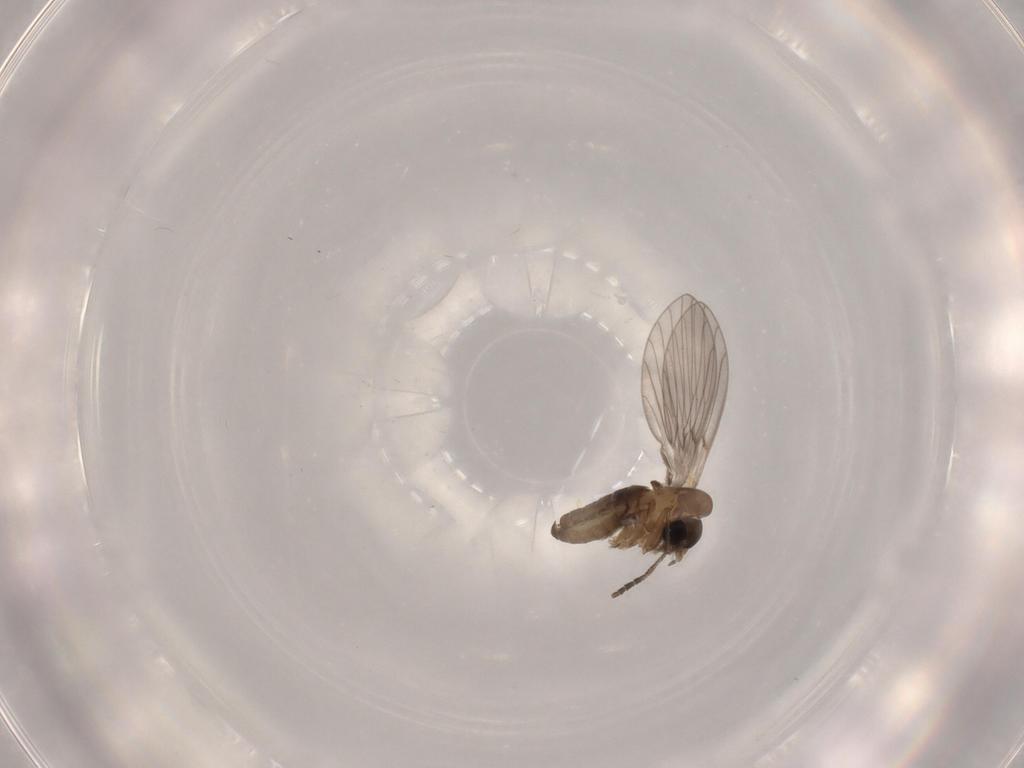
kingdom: Animalia
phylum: Arthropoda
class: Insecta
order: Diptera
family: Psychodidae
